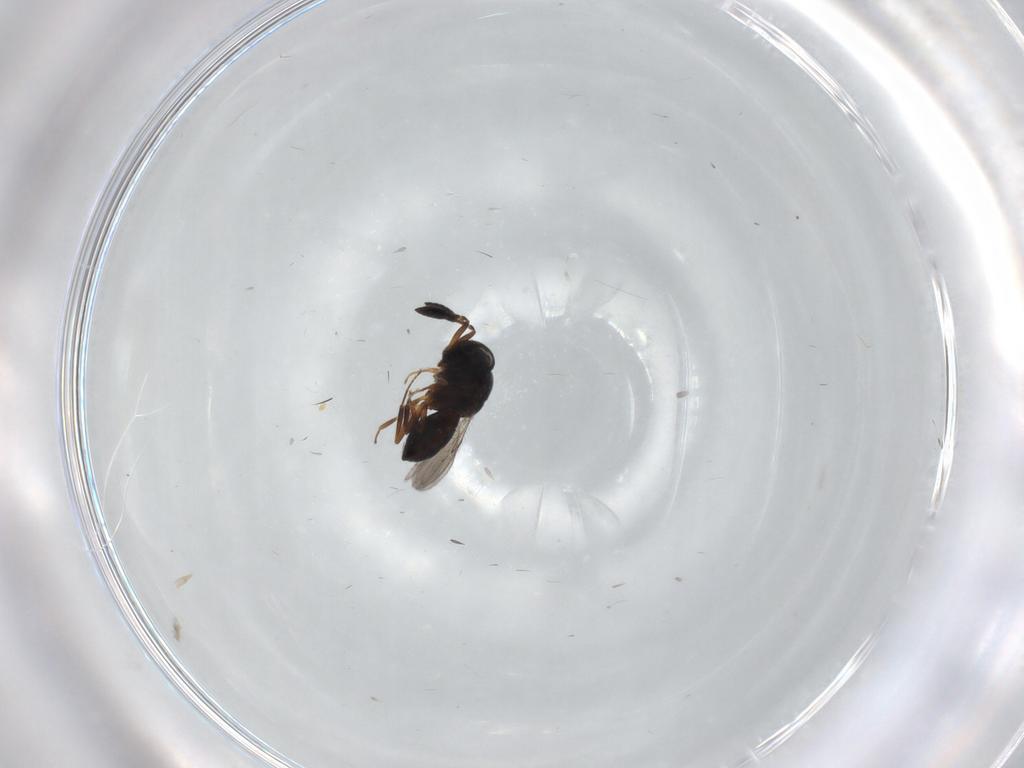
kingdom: Animalia
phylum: Arthropoda
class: Insecta
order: Hymenoptera
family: Scelionidae
